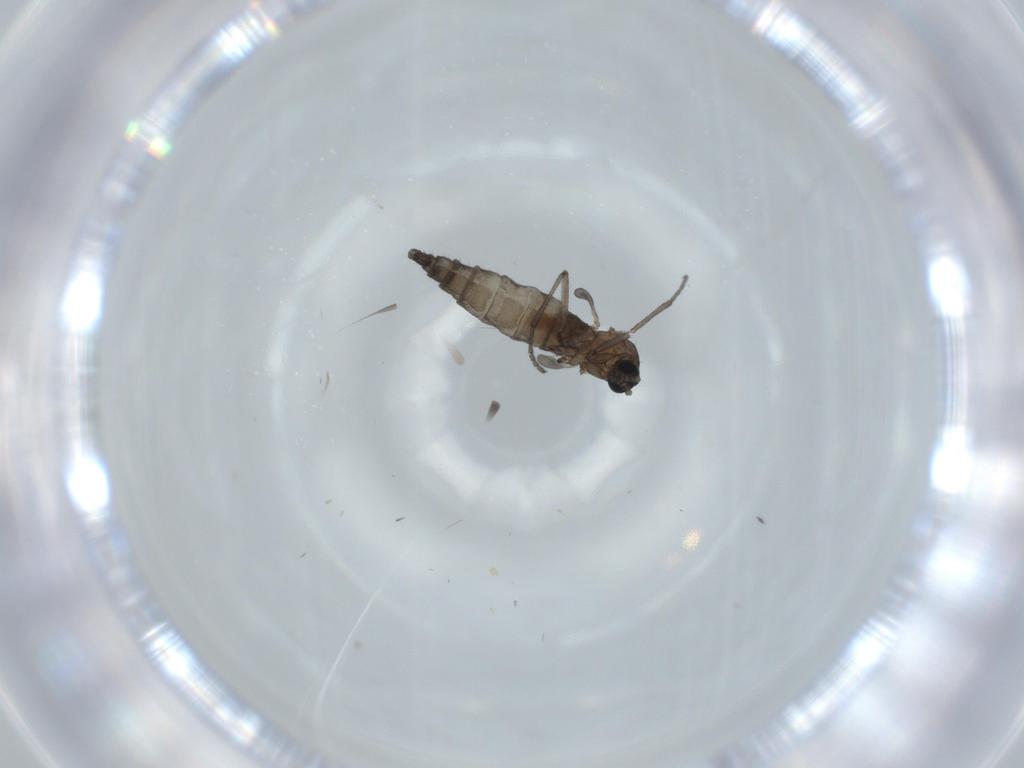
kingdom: Animalia
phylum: Arthropoda
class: Insecta
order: Diptera
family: Sciaridae
